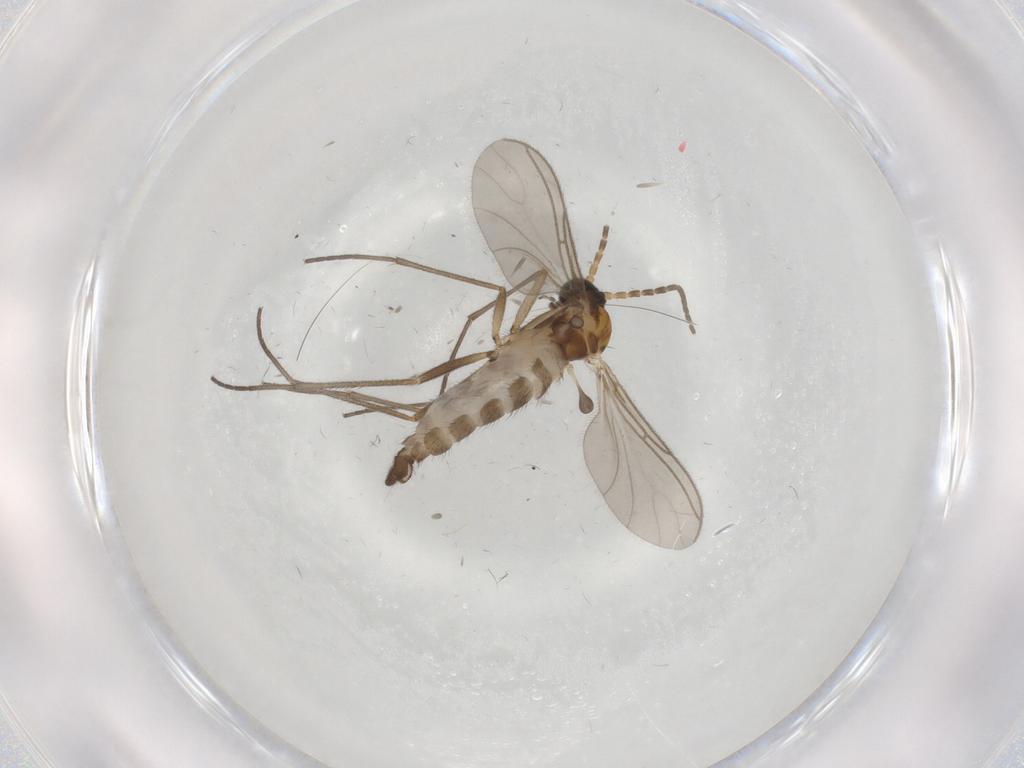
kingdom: Animalia
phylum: Arthropoda
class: Insecta
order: Diptera
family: Sciaridae
